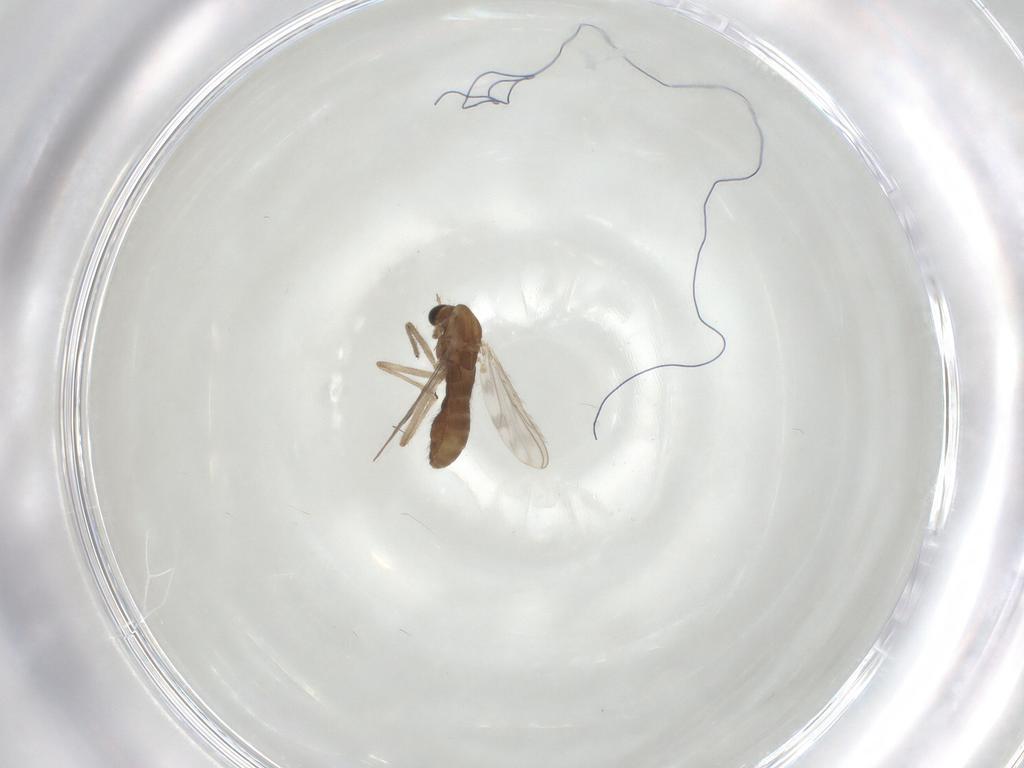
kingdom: Animalia
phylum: Arthropoda
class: Insecta
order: Diptera
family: Chironomidae
